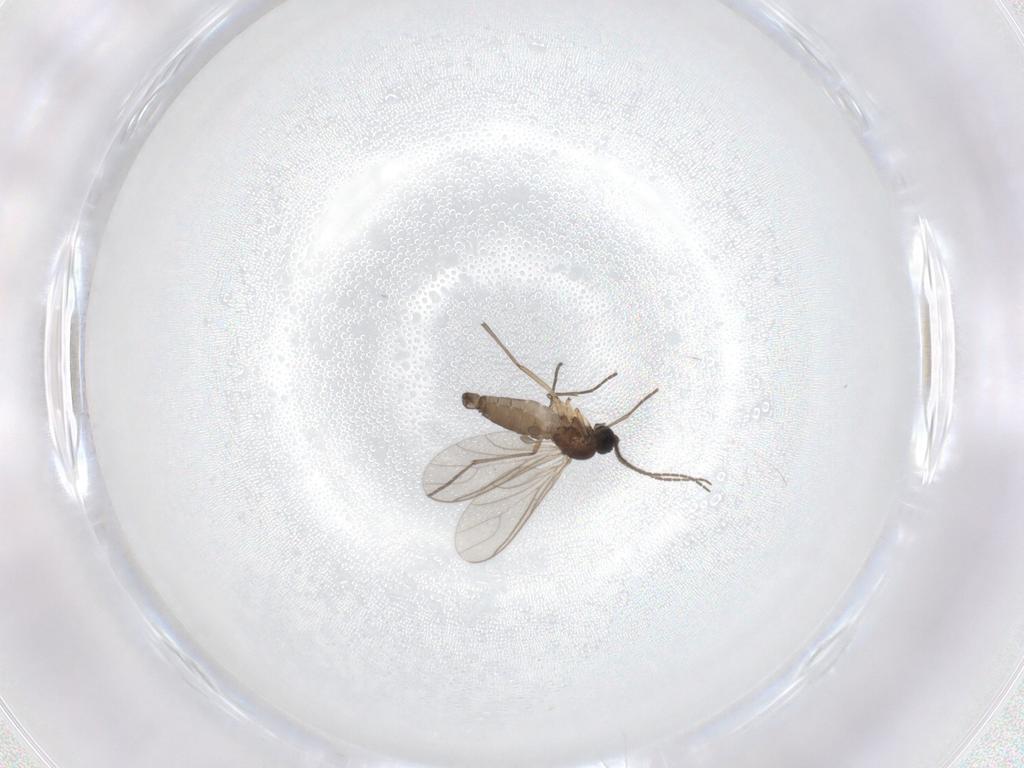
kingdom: Animalia
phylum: Arthropoda
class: Insecta
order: Diptera
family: Sciaridae
